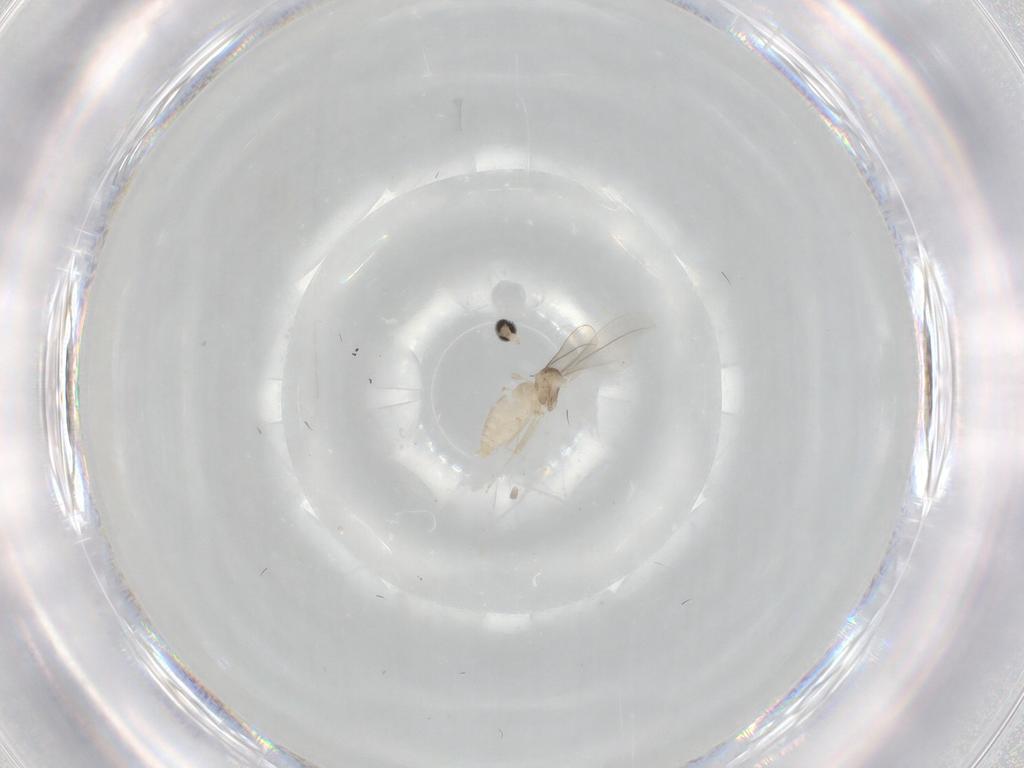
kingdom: Animalia
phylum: Arthropoda
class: Insecta
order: Diptera
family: Cecidomyiidae
